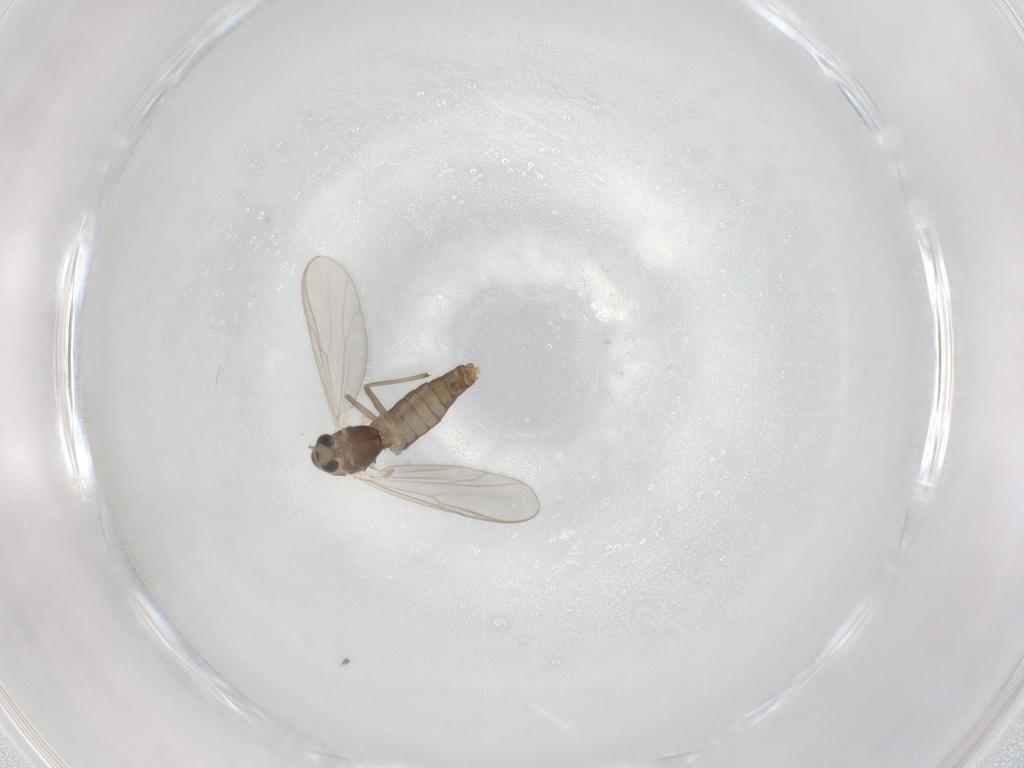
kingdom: Animalia
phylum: Arthropoda
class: Insecta
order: Diptera
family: Chironomidae
